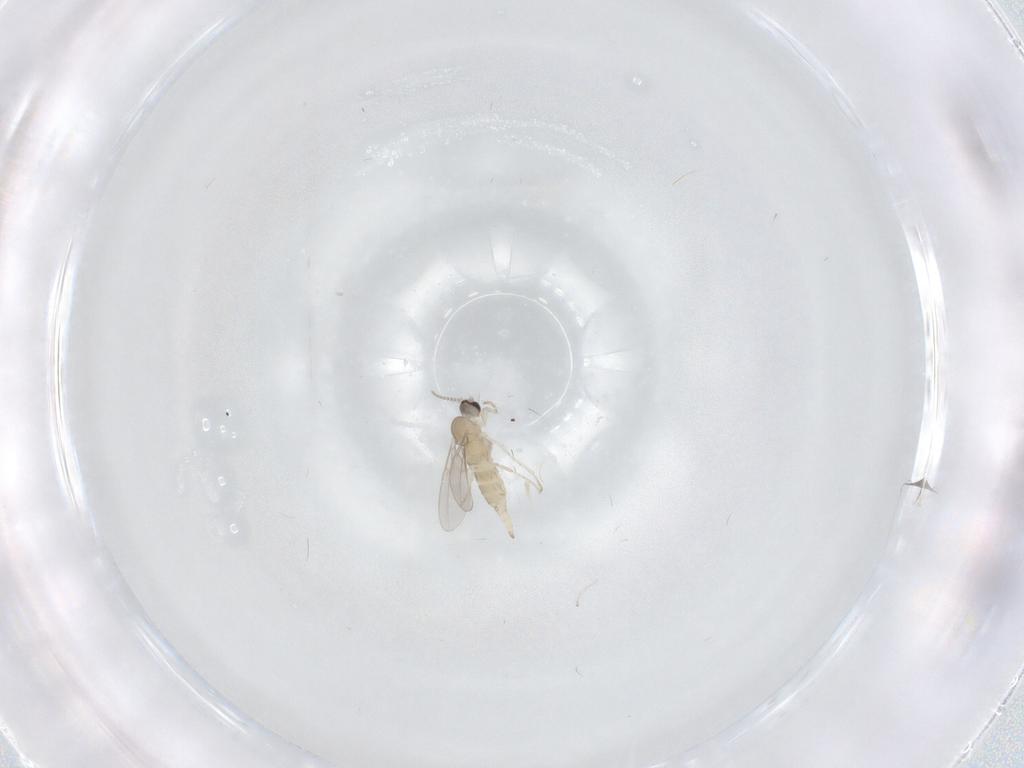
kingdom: Animalia
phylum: Arthropoda
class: Insecta
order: Diptera
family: Cecidomyiidae
